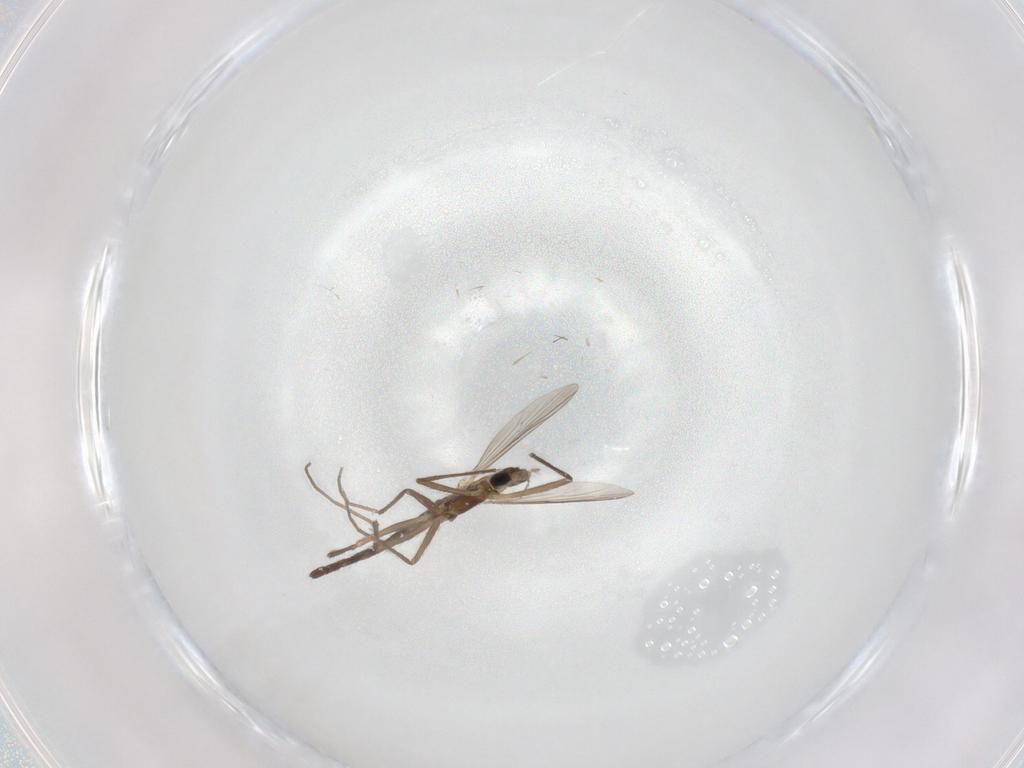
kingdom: Animalia
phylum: Arthropoda
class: Insecta
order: Diptera
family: Chironomidae
